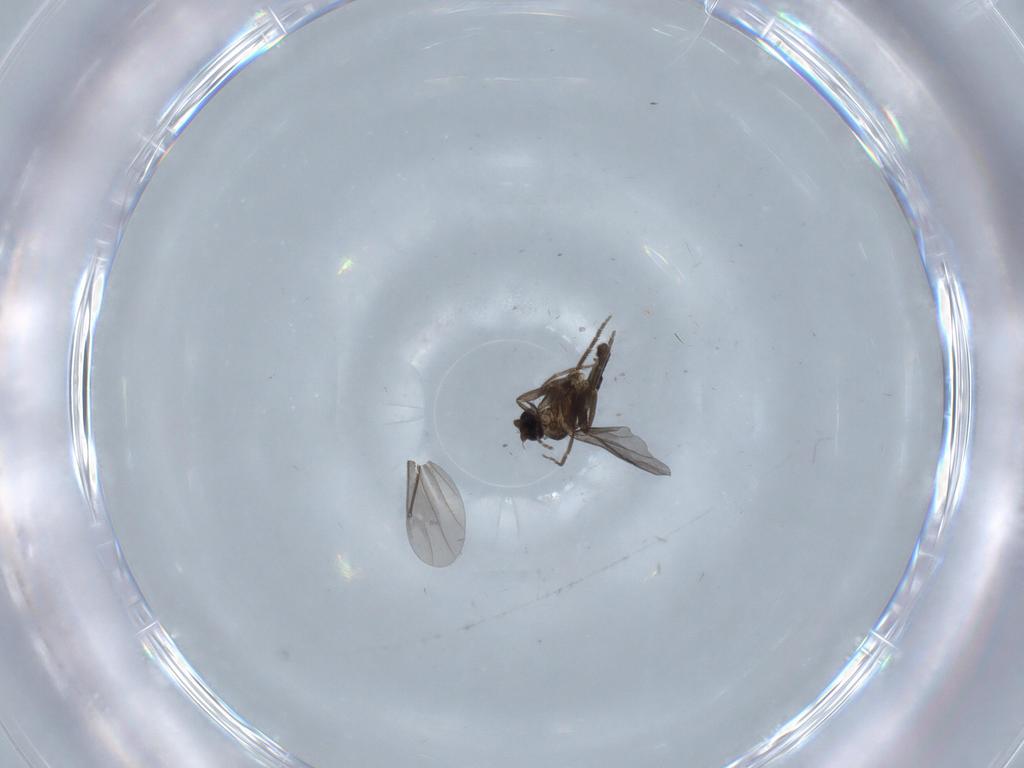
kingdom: Animalia
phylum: Arthropoda
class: Insecta
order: Diptera
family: Phoridae
